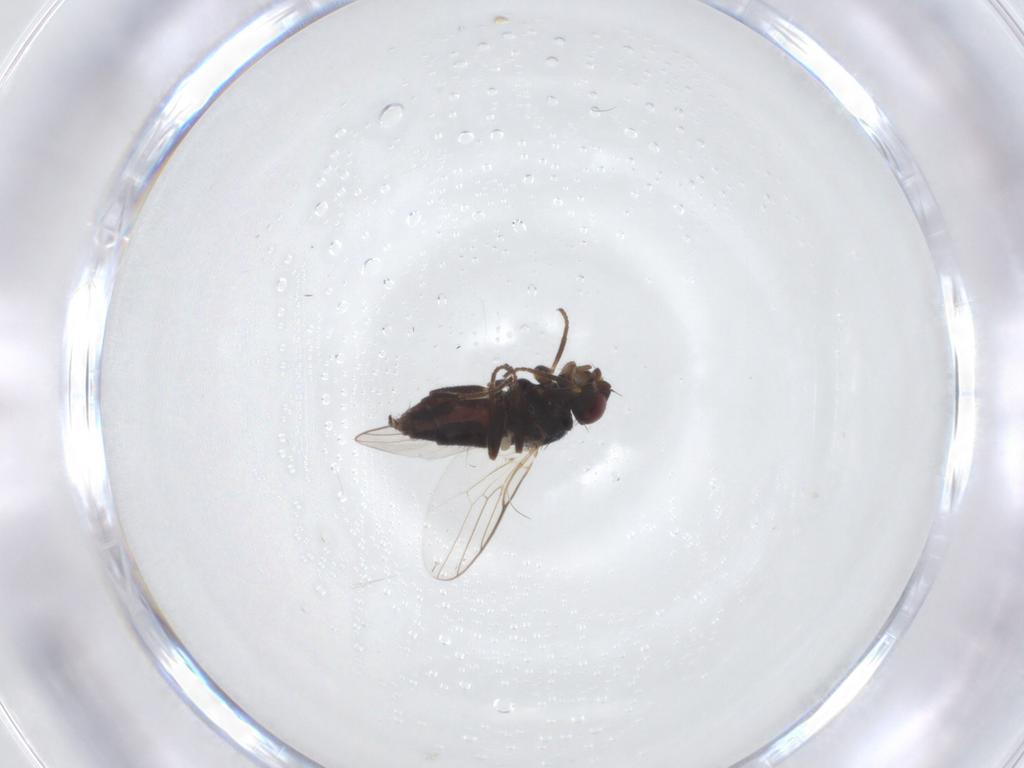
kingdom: Animalia
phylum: Arthropoda
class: Insecta
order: Diptera
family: Chloropidae
